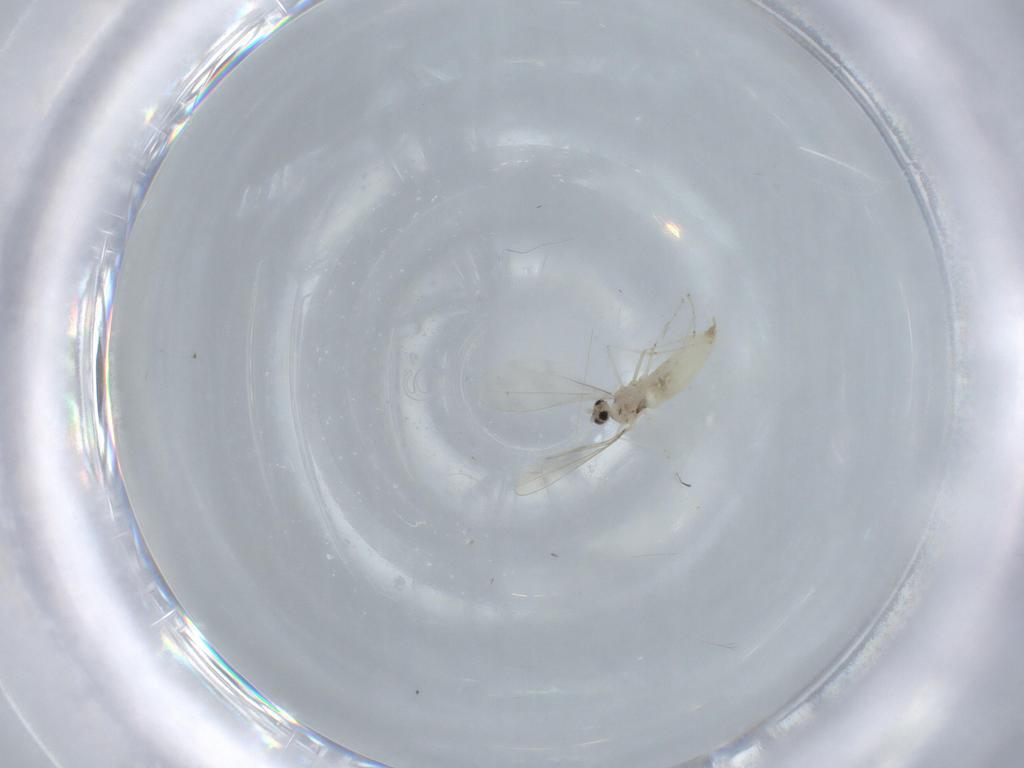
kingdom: Animalia
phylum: Arthropoda
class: Insecta
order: Diptera
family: Cecidomyiidae
